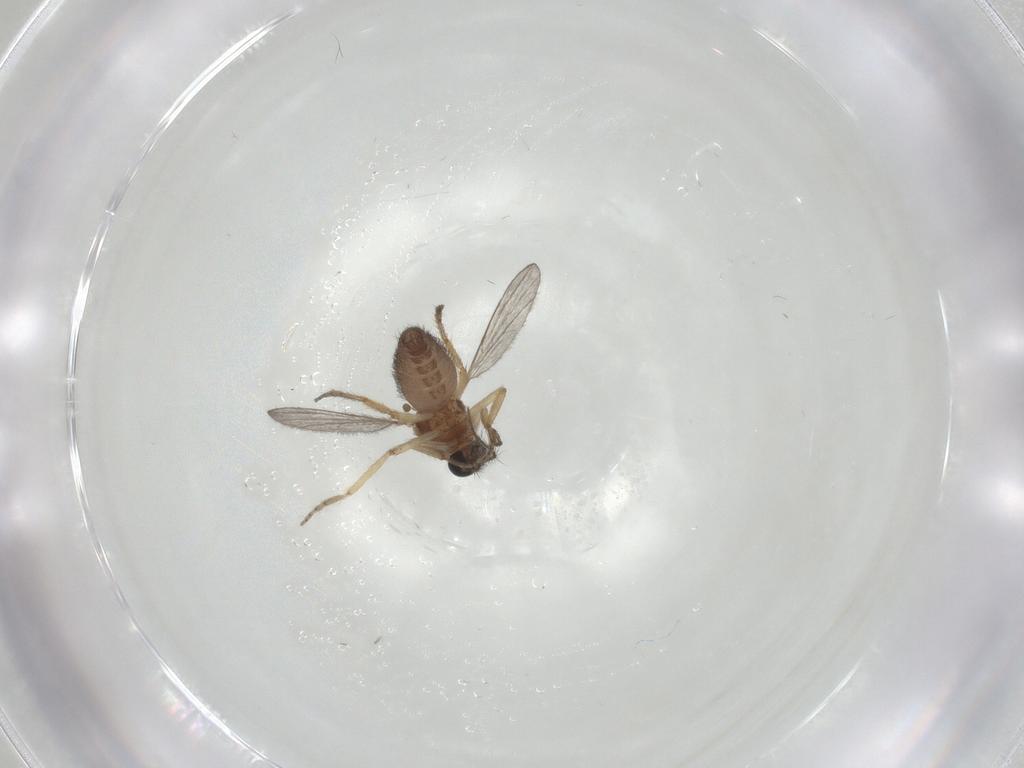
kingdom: Animalia
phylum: Arthropoda
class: Insecta
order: Diptera
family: Ceratopogonidae
